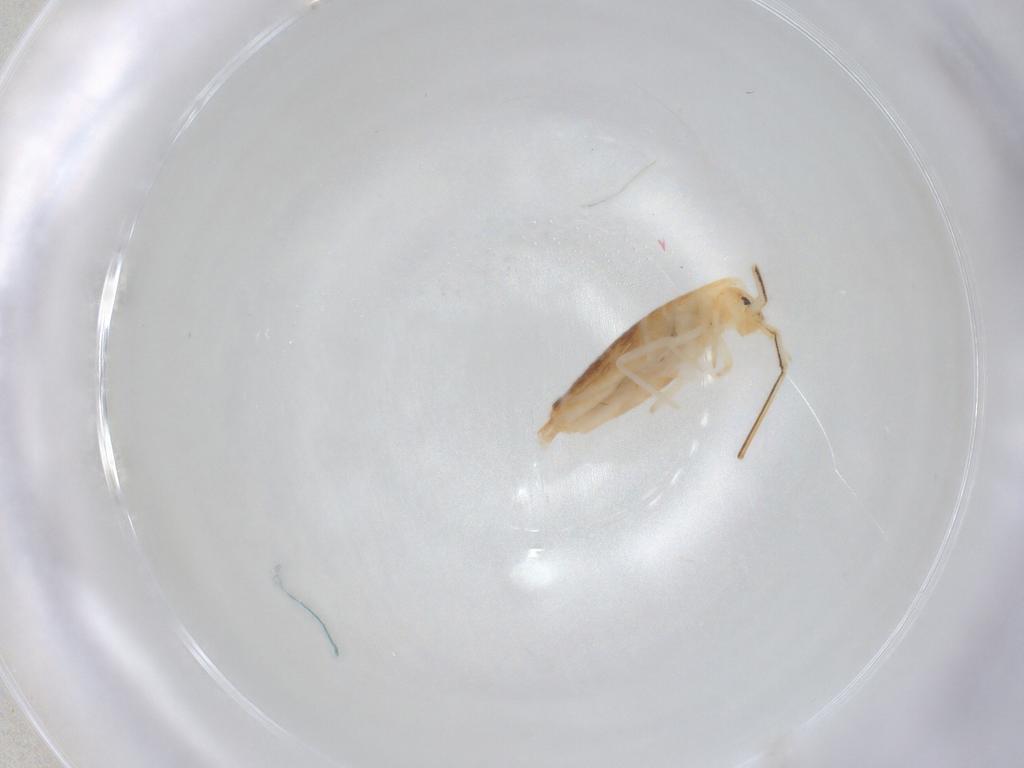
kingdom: Animalia
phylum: Arthropoda
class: Collembola
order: Entomobryomorpha
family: Entomobryidae
